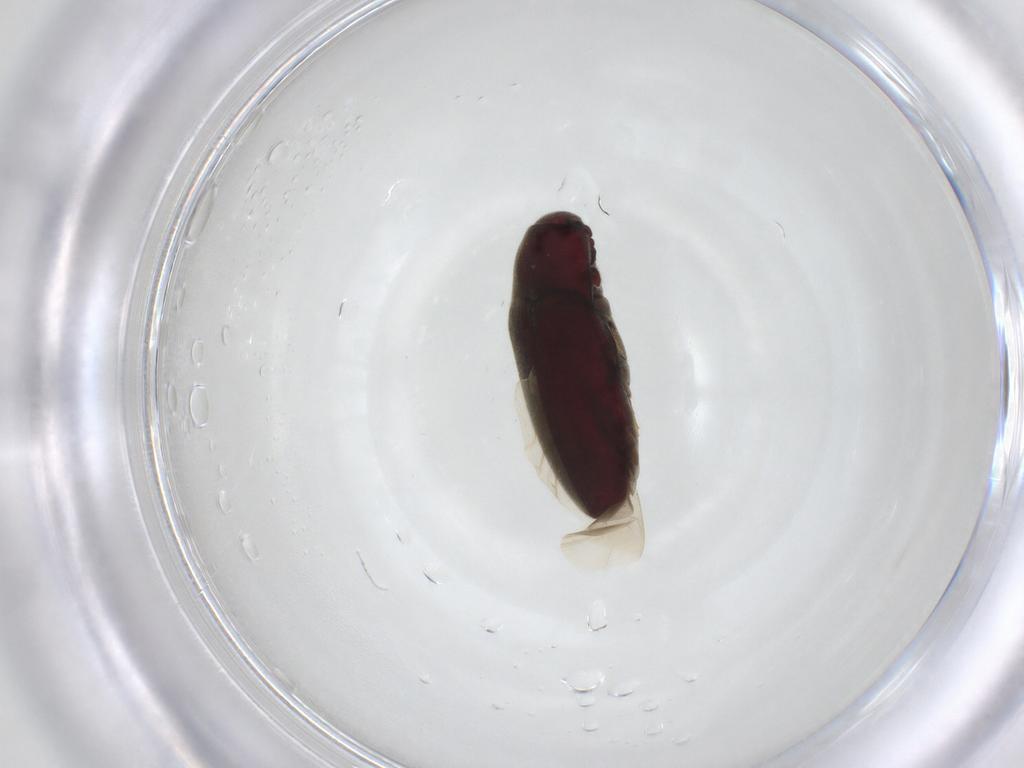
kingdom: Animalia
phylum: Arthropoda
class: Insecta
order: Coleoptera
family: Throscidae
